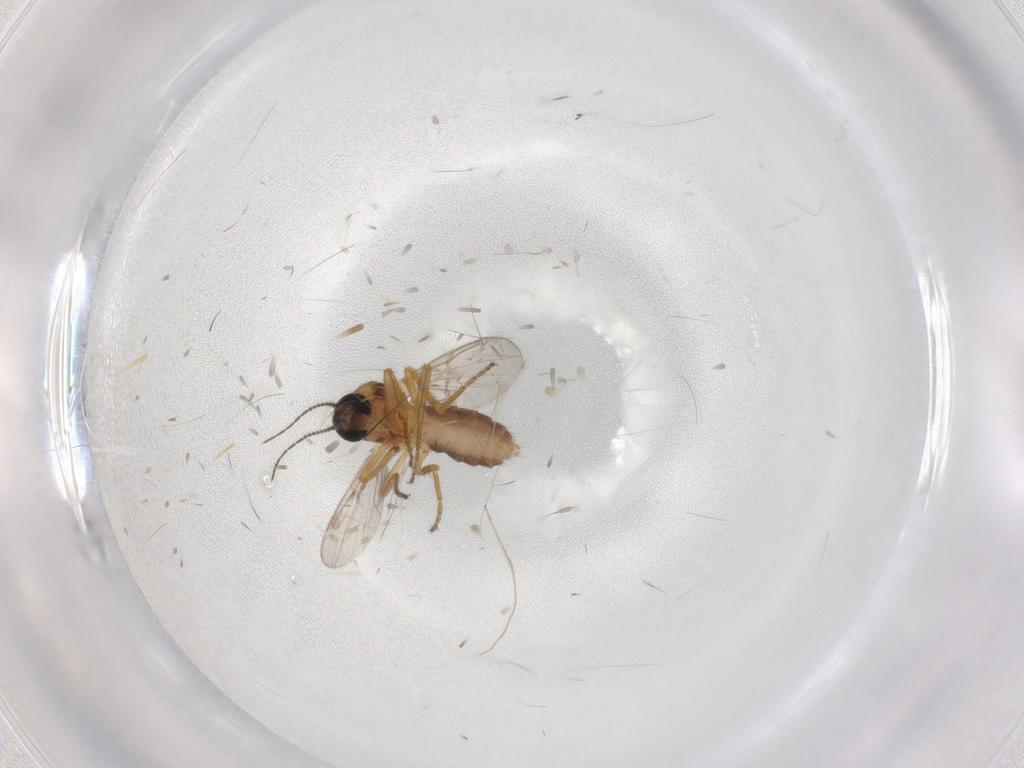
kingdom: Animalia
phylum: Arthropoda
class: Insecta
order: Diptera
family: Ceratopogonidae
